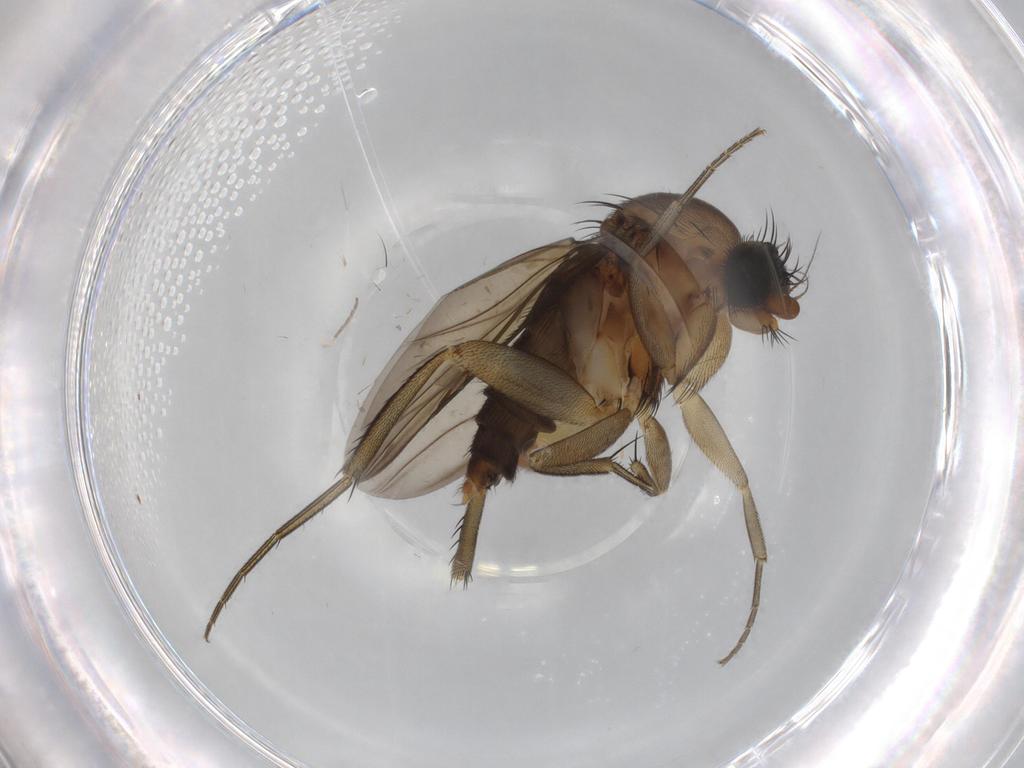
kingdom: Animalia
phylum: Arthropoda
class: Insecta
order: Diptera
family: Phoridae
